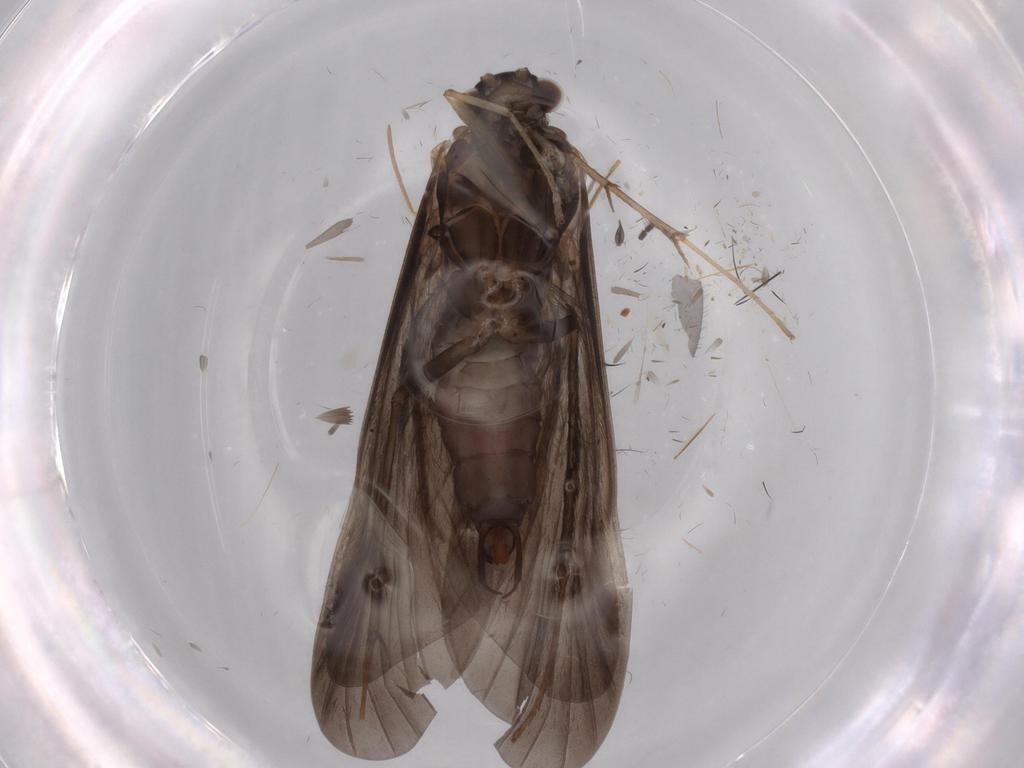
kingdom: Animalia
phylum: Arthropoda
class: Insecta
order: Trichoptera
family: Hydropsychidae
